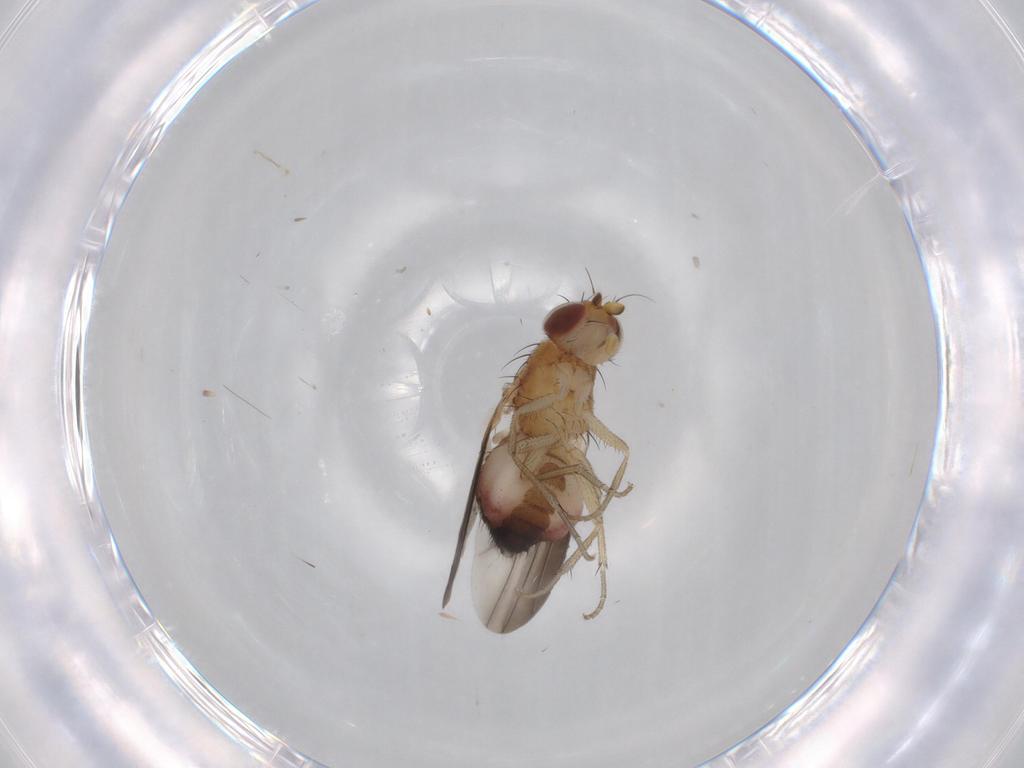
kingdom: Animalia
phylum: Arthropoda
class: Insecta
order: Diptera
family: Heleomyzidae
